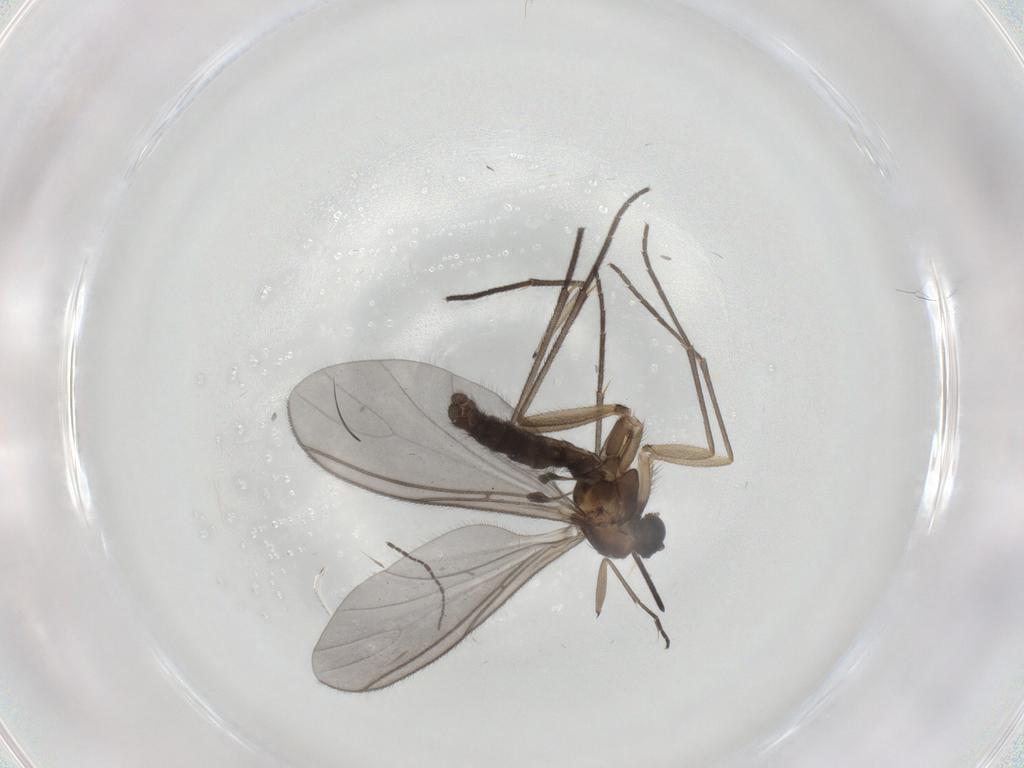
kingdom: Animalia
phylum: Arthropoda
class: Insecta
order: Diptera
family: Sciaridae
